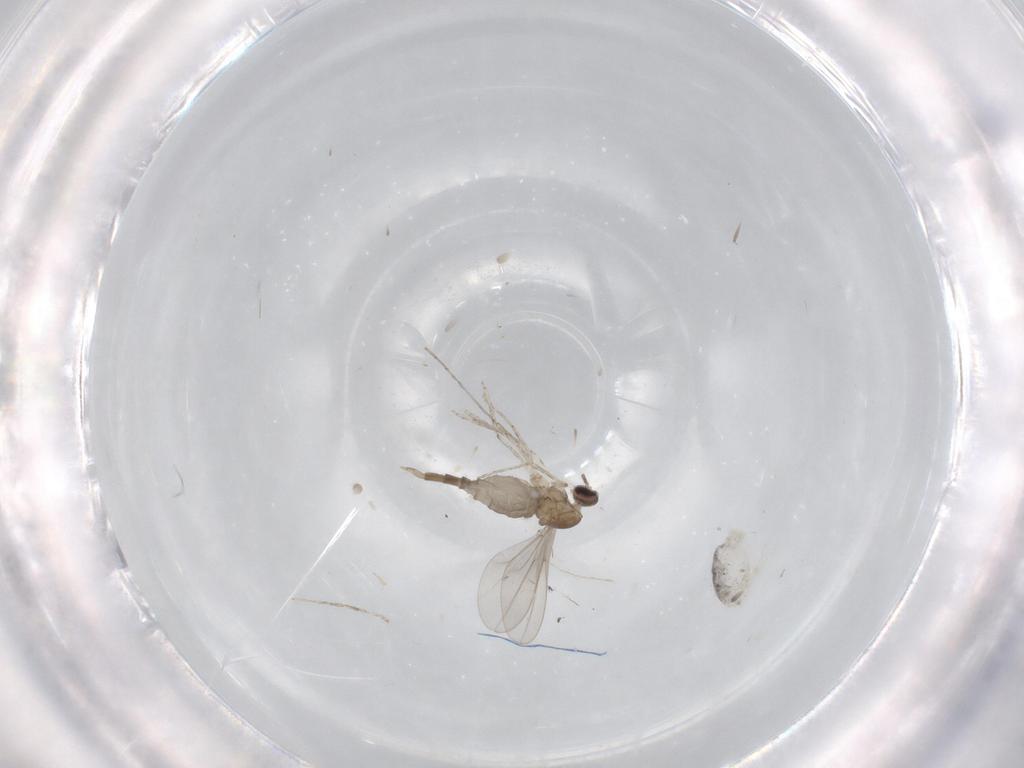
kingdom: Animalia
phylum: Arthropoda
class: Insecta
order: Diptera
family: Cecidomyiidae
